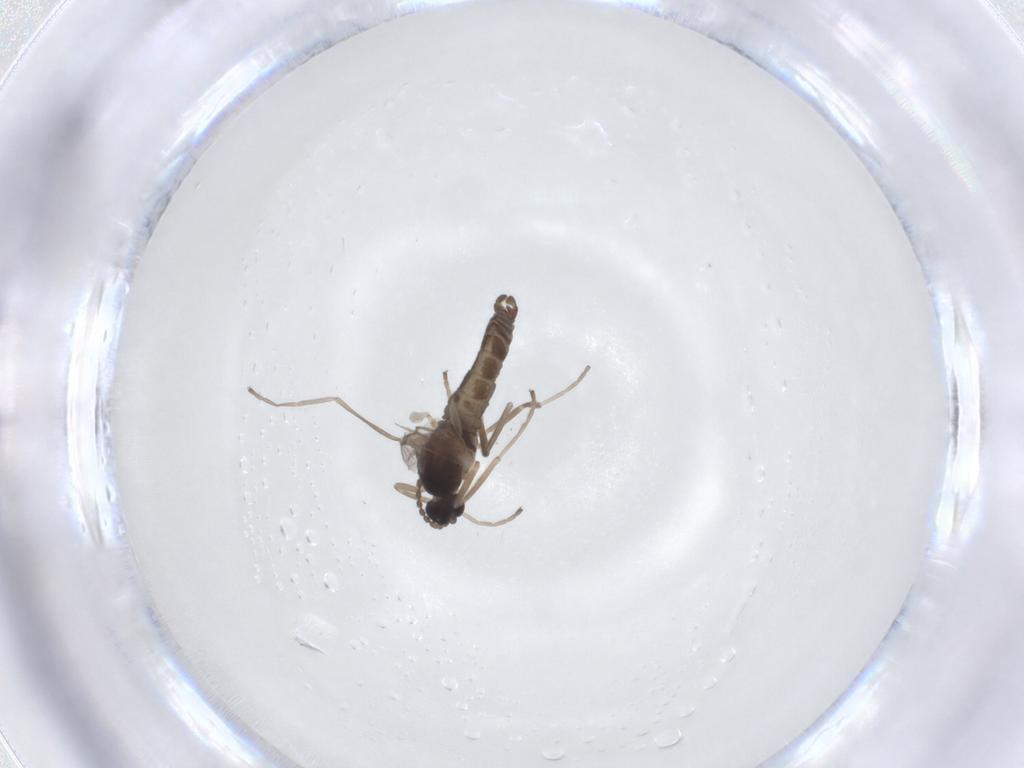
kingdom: Animalia
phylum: Arthropoda
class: Insecta
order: Diptera
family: Cecidomyiidae
